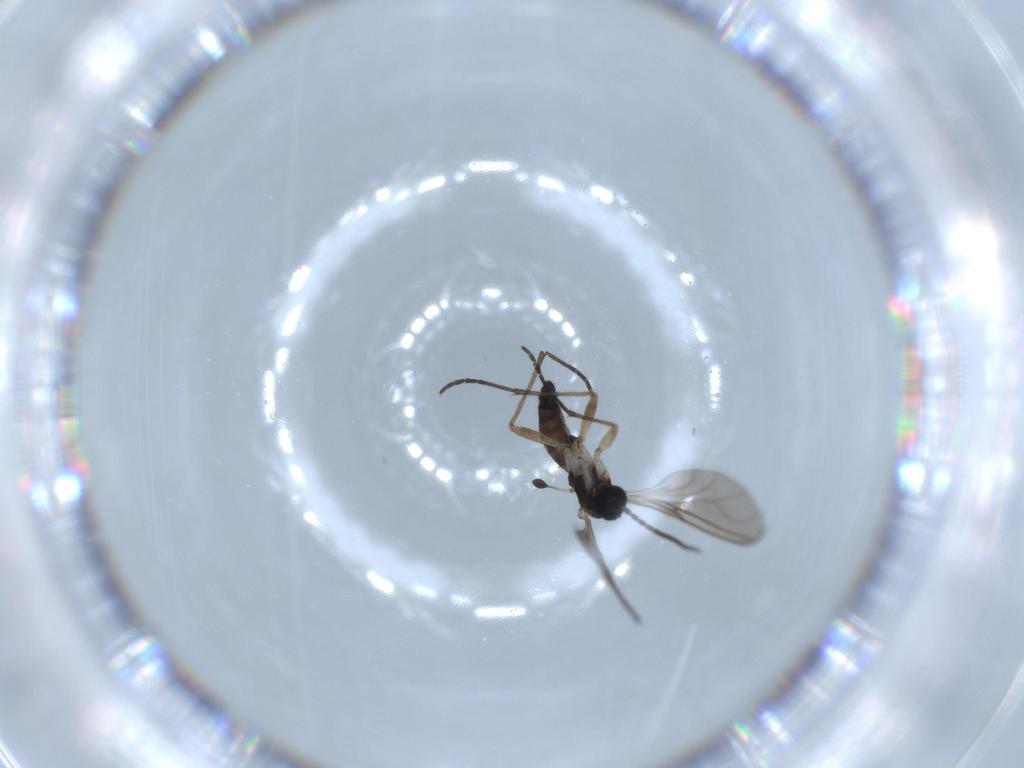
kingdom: Animalia
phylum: Arthropoda
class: Insecta
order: Diptera
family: Sciaridae
